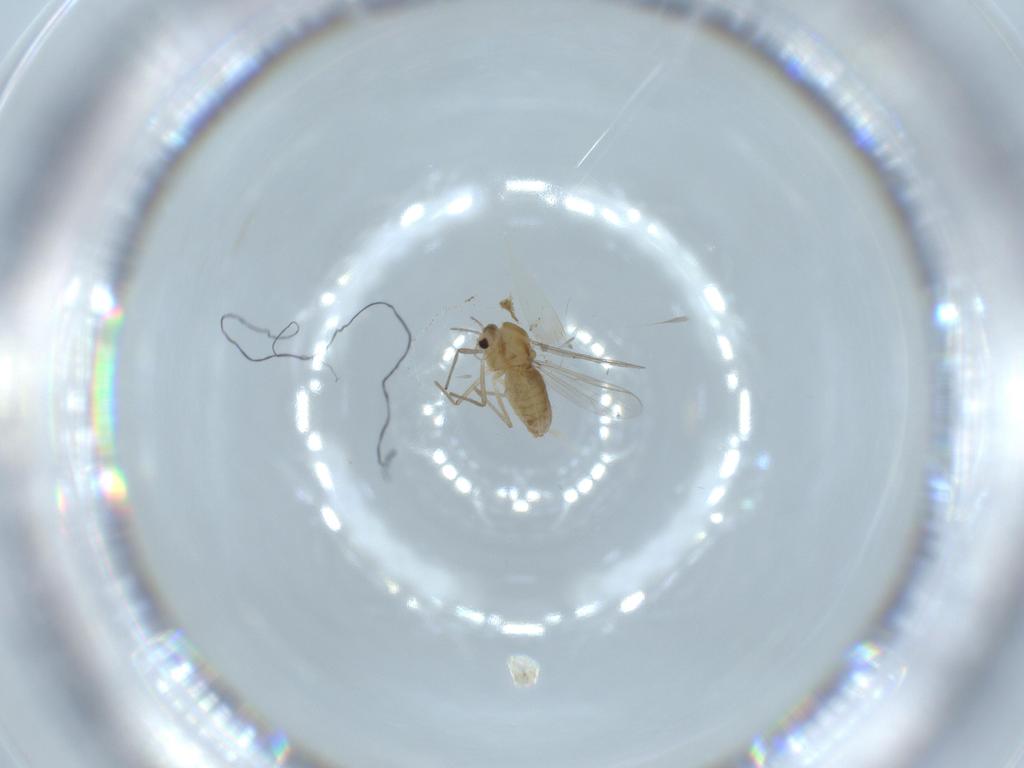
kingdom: Animalia
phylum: Arthropoda
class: Insecta
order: Diptera
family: Chironomidae
